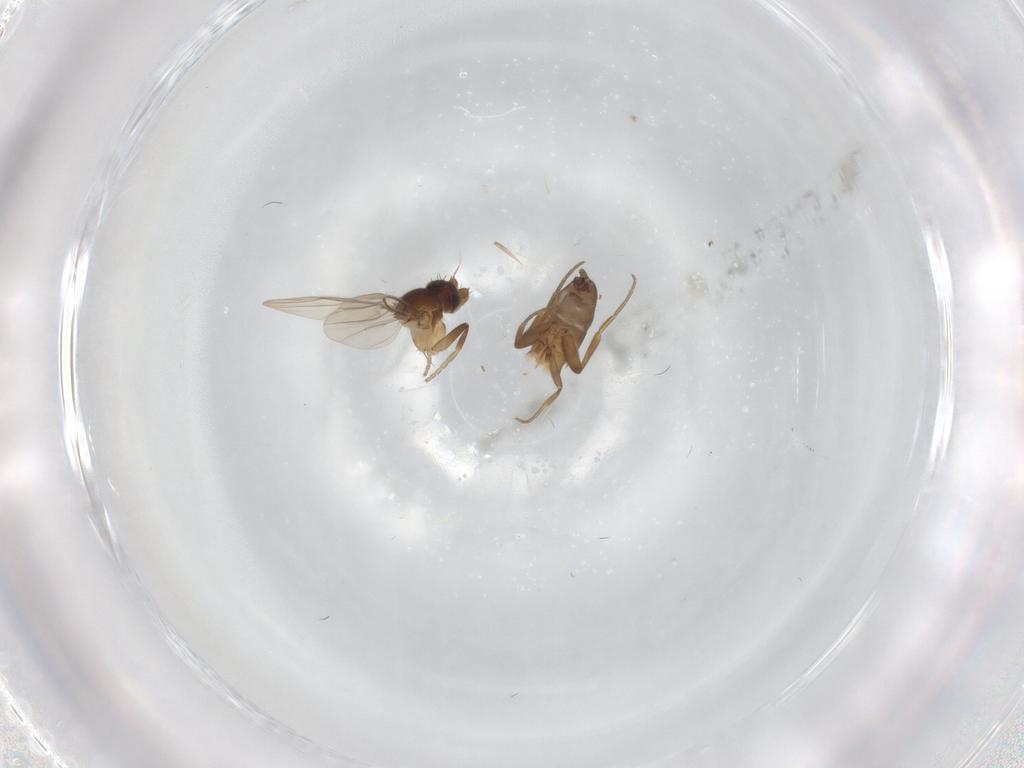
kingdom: Animalia
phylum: Arthropoda
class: Insecta
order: Diptera
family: Phoridae
